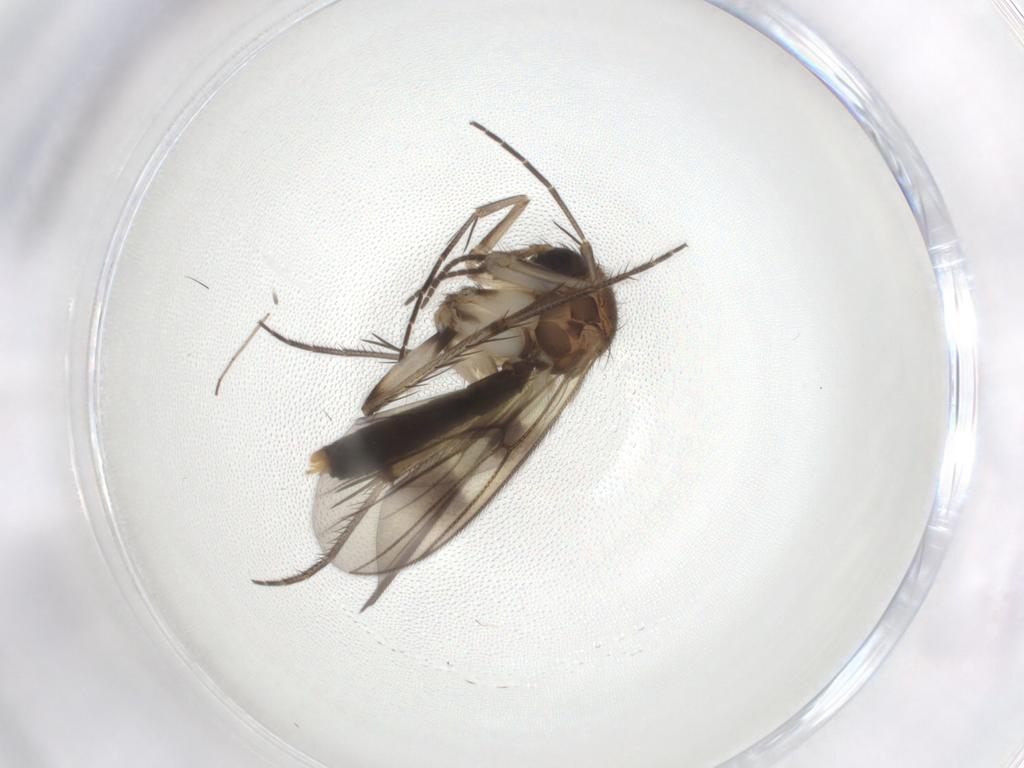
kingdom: Animalia
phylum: Arthropoda
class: Insecta
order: Diptera
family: Mycetophilidae
